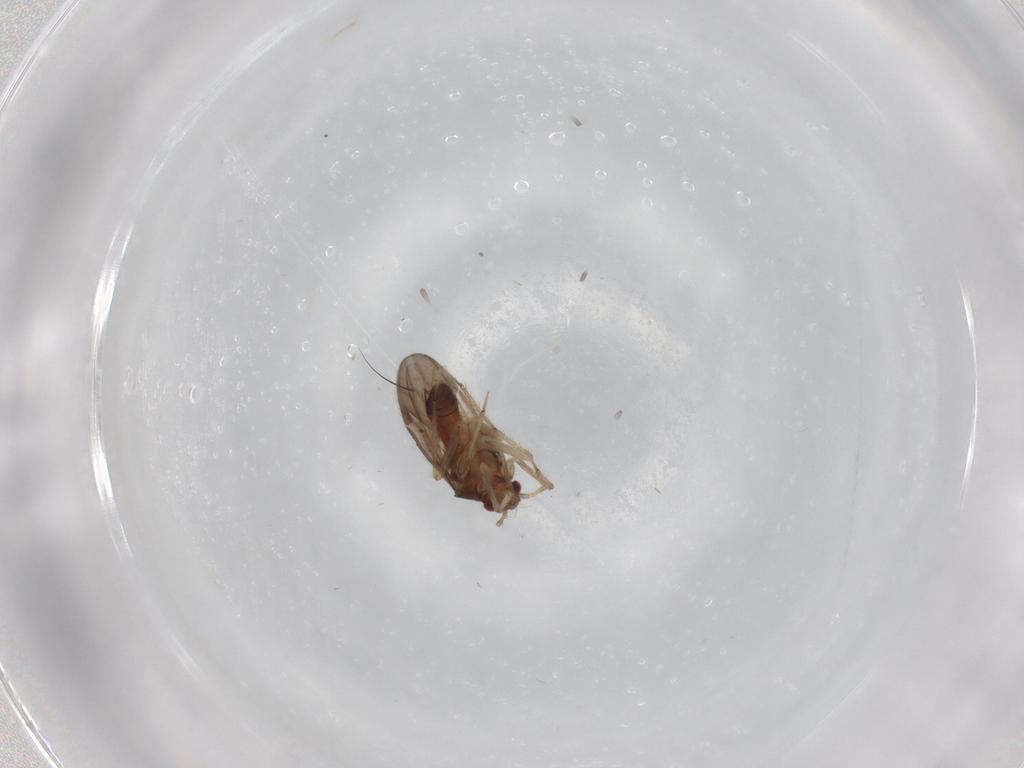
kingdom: Animalia
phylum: Arthropoda
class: Insecta
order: Hemiptera
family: Ceratocombidae
